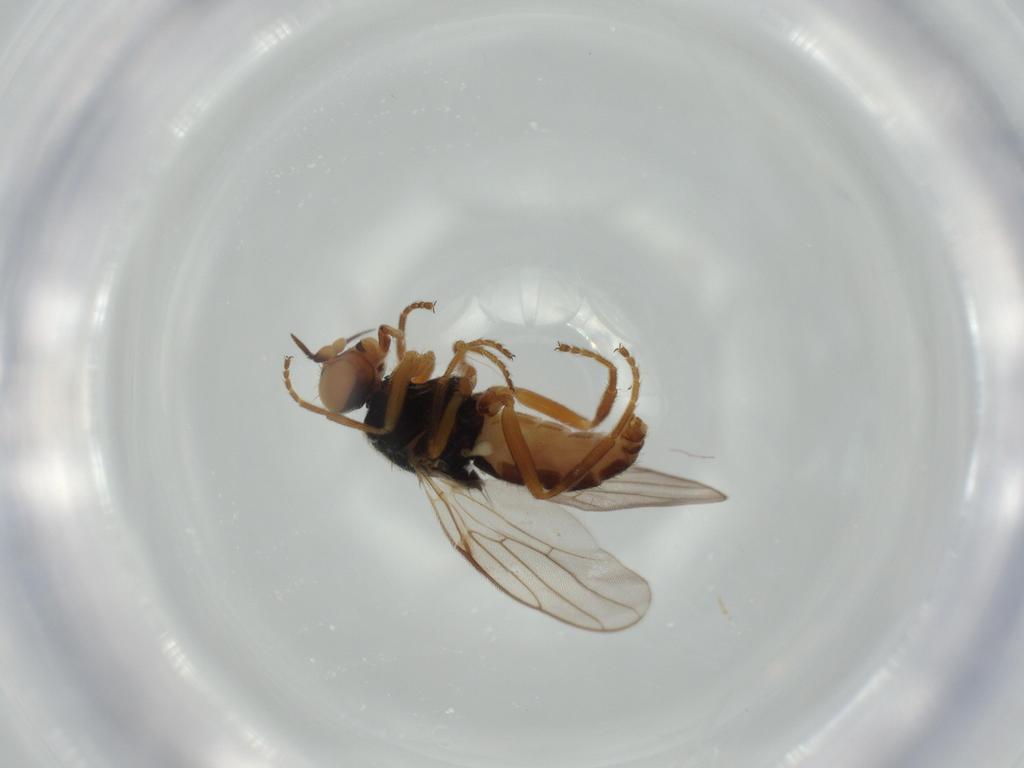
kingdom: Animalia
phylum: Arthropoda
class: Insecta
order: Diptera
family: Chloropidae
